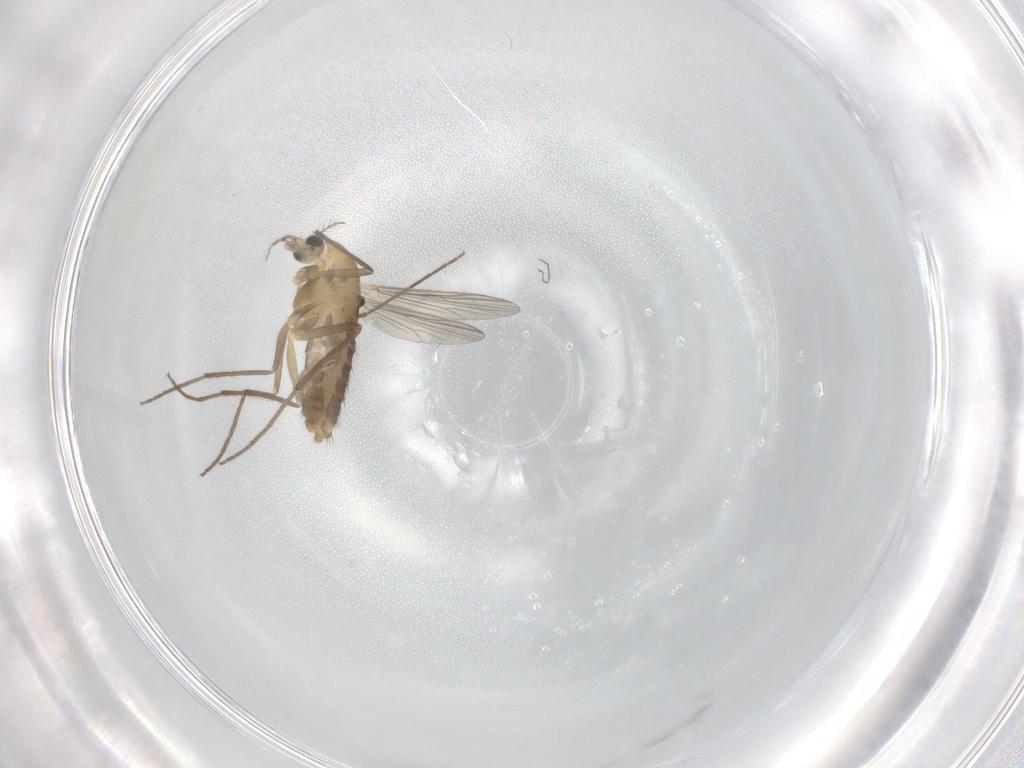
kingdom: Animalia
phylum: Arthropoda
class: Insecta
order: Diptera
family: Chironomidae
